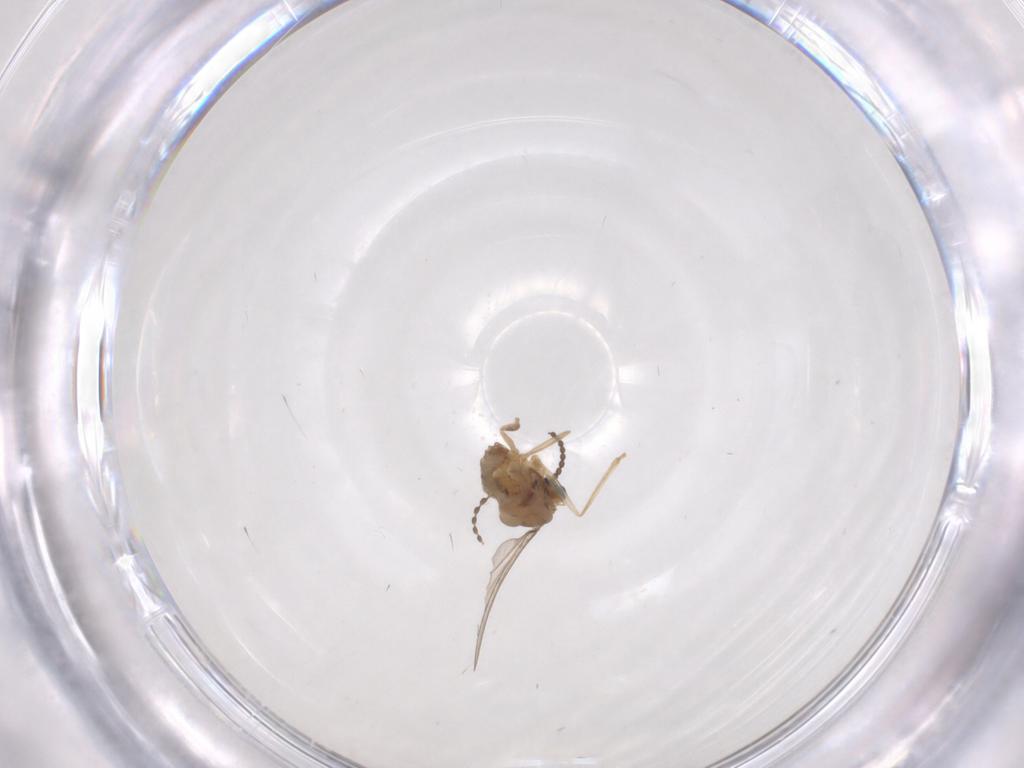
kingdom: Animalia
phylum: Arthropoda
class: Insecta
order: Diptera
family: Cecidomyiidae
